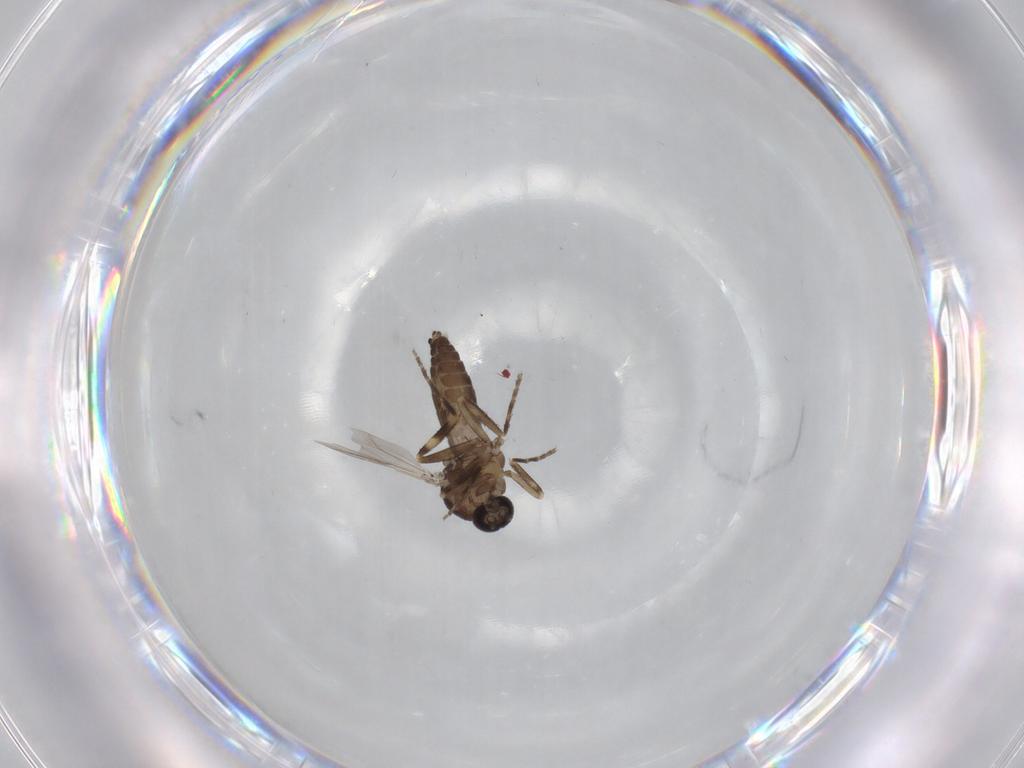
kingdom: Animalia
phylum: Arthropoda
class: Insecta
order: Diptera
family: Ceratopogonidae
